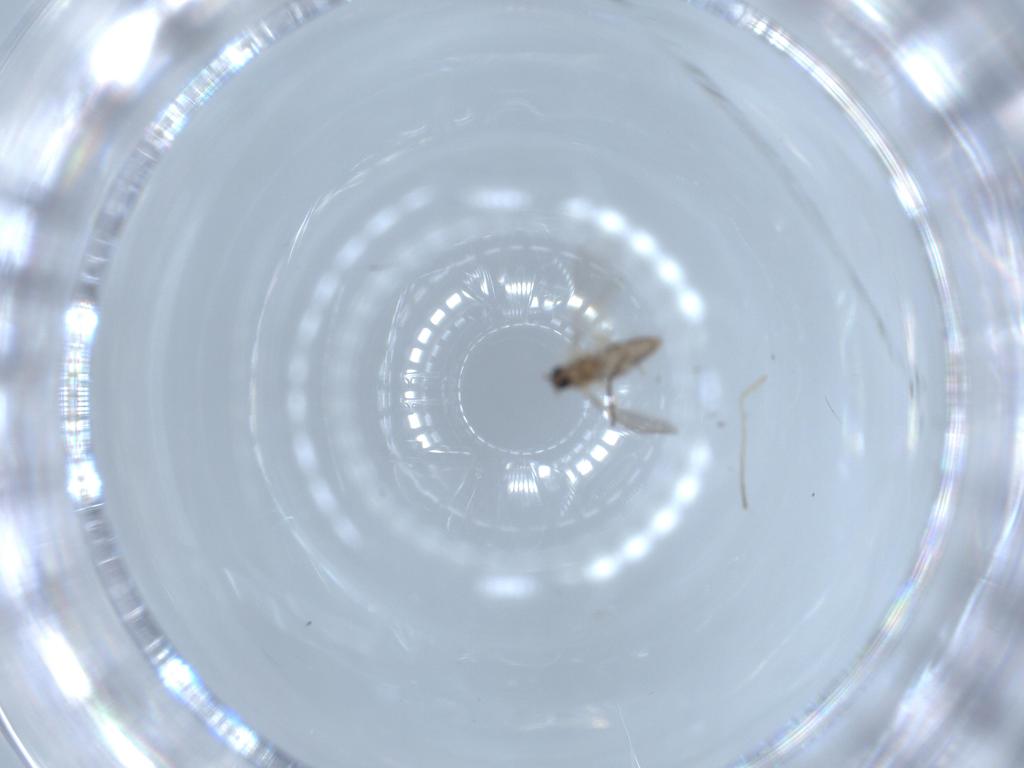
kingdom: Animalia
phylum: Arthropoda
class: Insecta
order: Diptera
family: Cecidomyiidae
